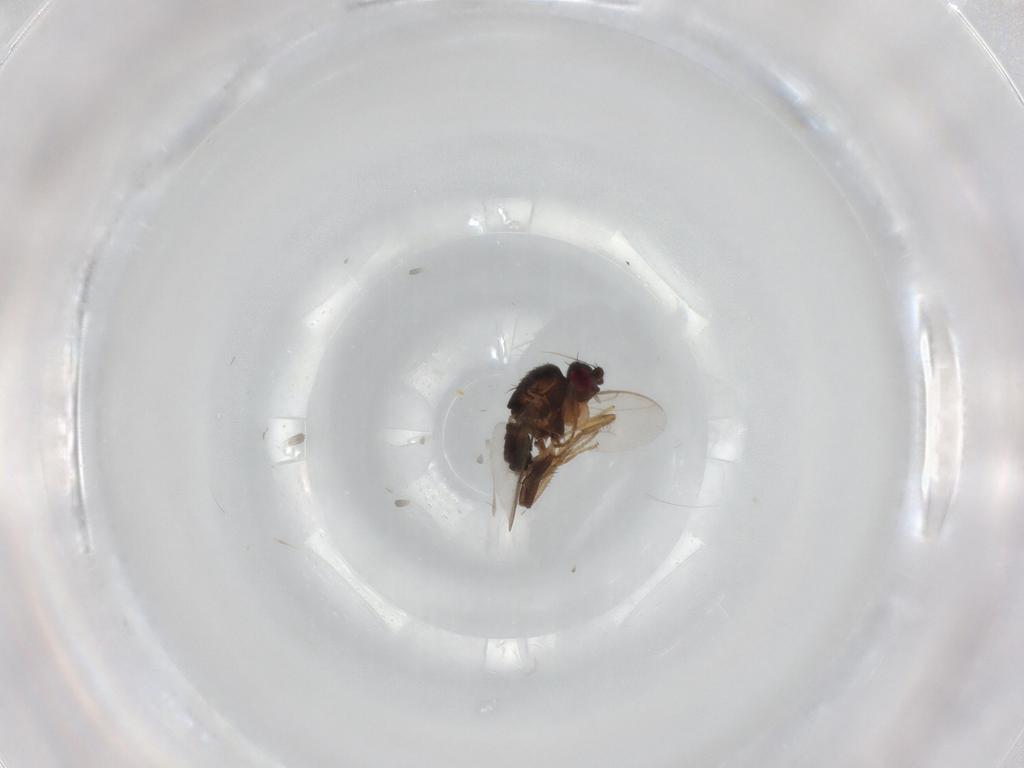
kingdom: Animalia
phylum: Arthropoda
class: Insecta
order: Diptera
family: Sphaeroceridae
